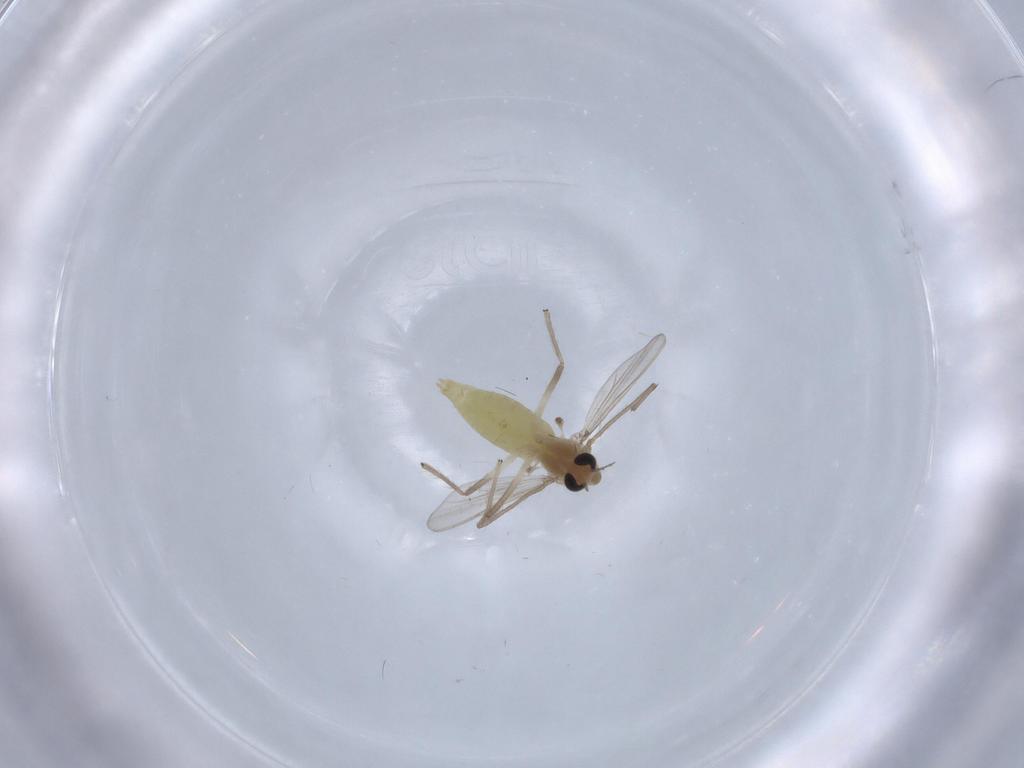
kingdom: Animalia
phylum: Arthropoda
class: Insecta
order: Diptera
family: Chironomidae
